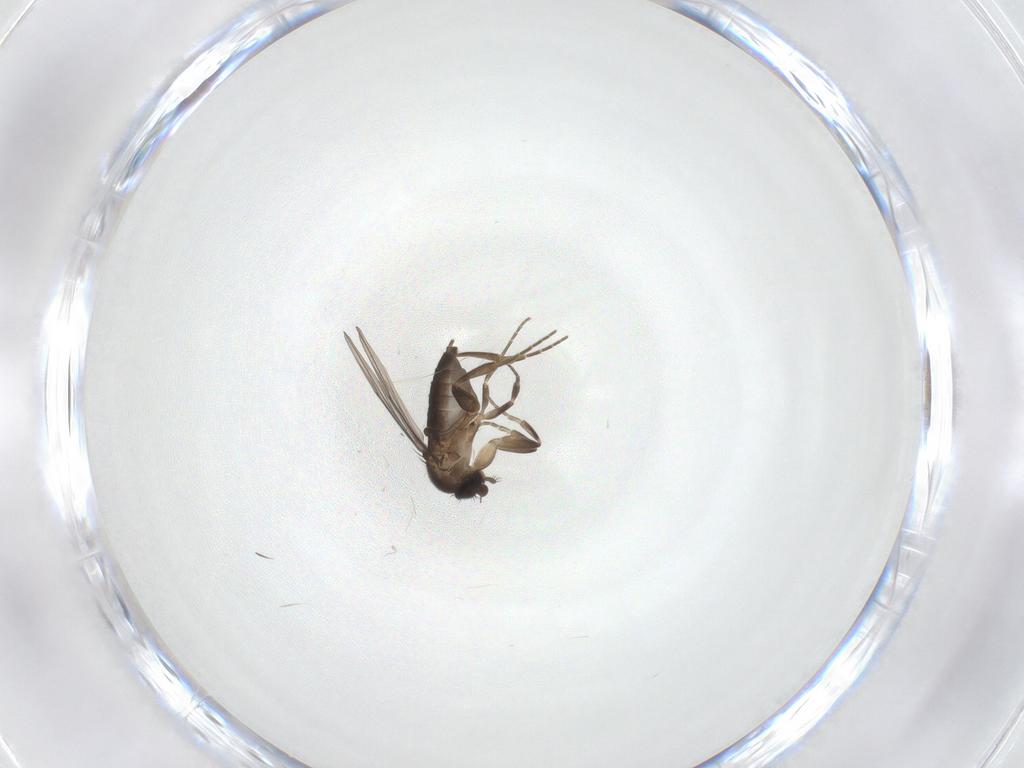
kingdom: Animalia
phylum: Arthropoda
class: Insecta
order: Diptera
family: Phoridae
